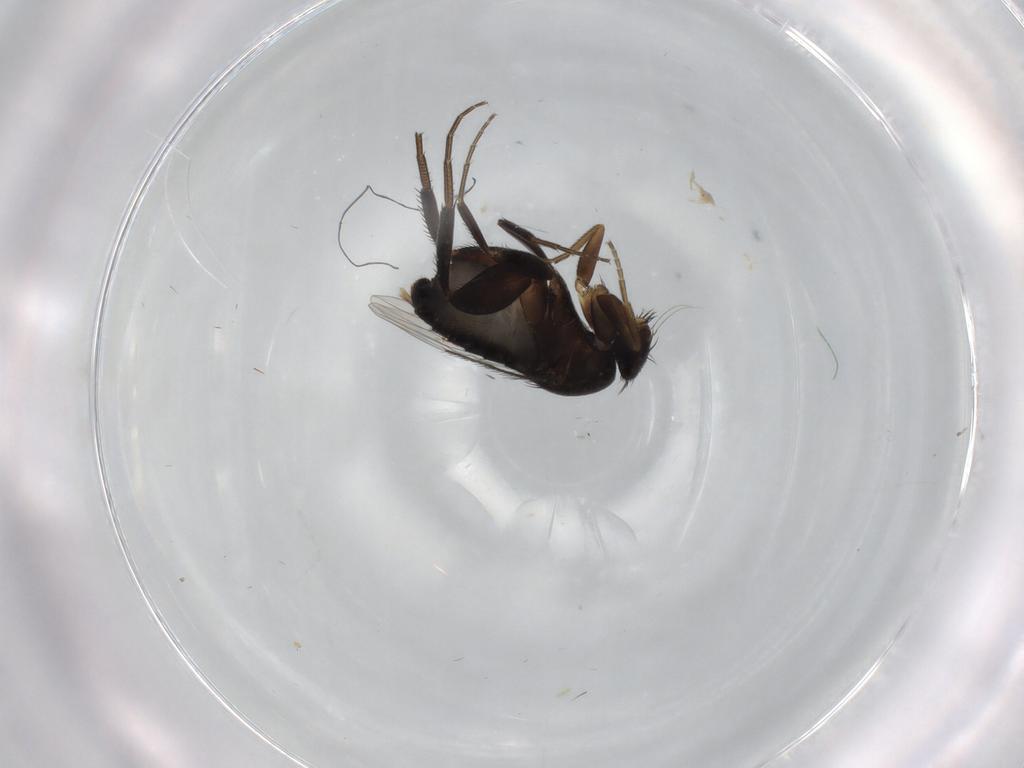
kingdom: Animalia
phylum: Arthropoda
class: Insecta
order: Diptera
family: Phoridae
